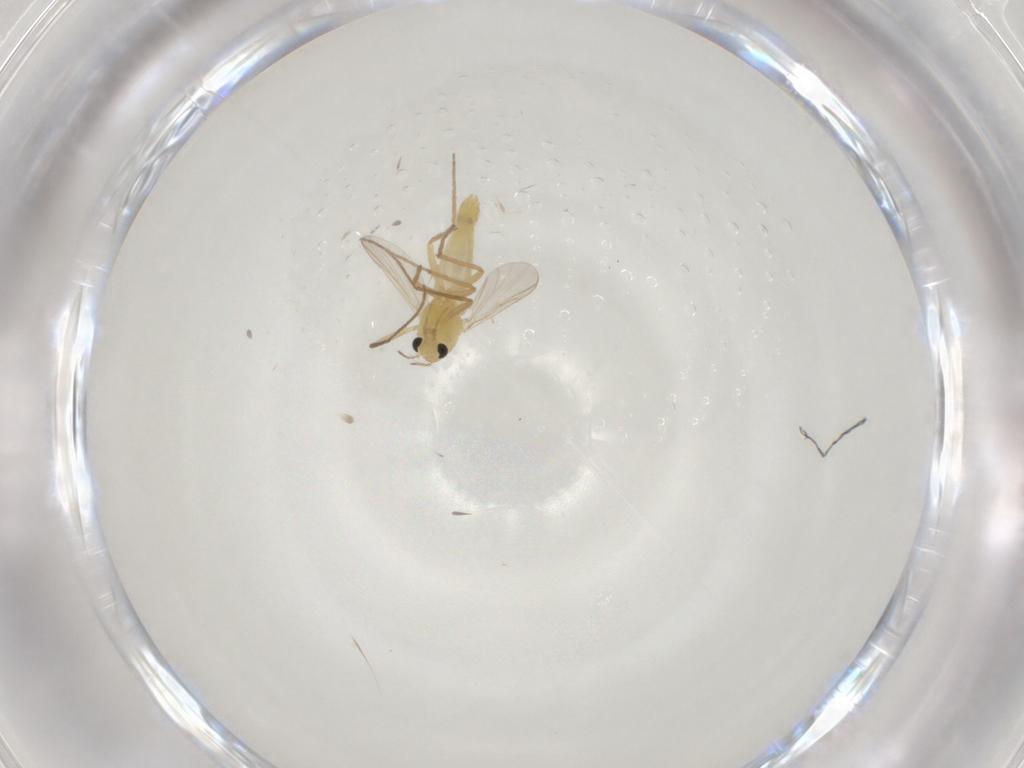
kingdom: Animalia
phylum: Arthropoda
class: Insecta
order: Diptera
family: Chironomidae
